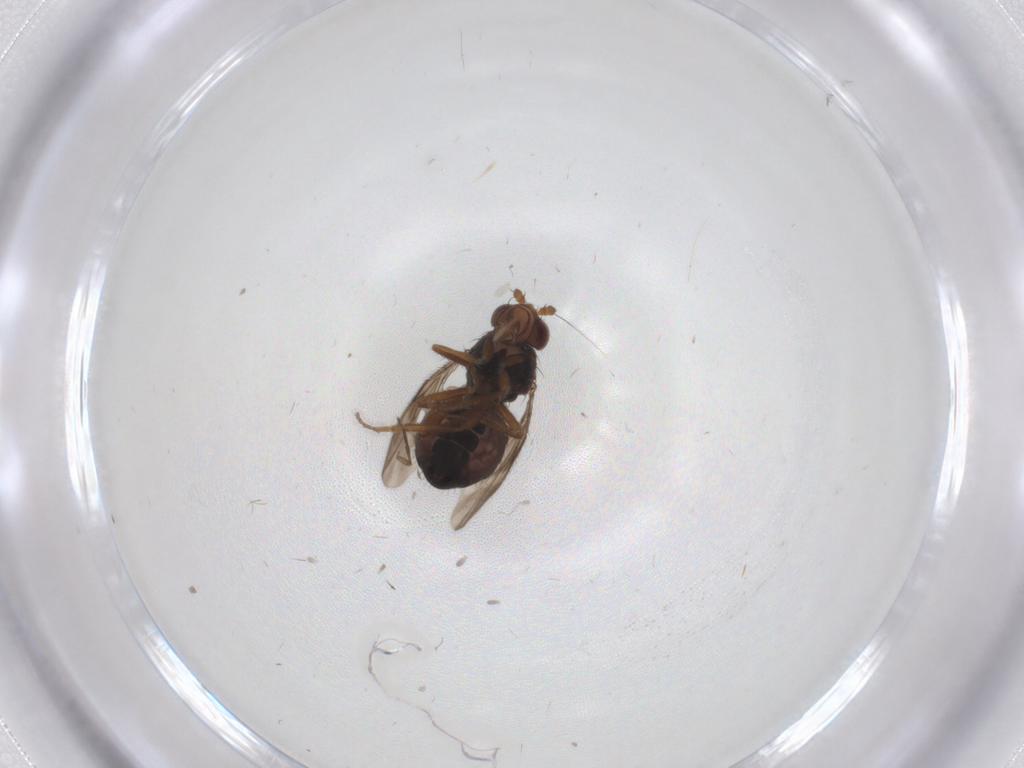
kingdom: Animalia
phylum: Arthropoda
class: Insecta
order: Diptera
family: Sphaeroceridae
